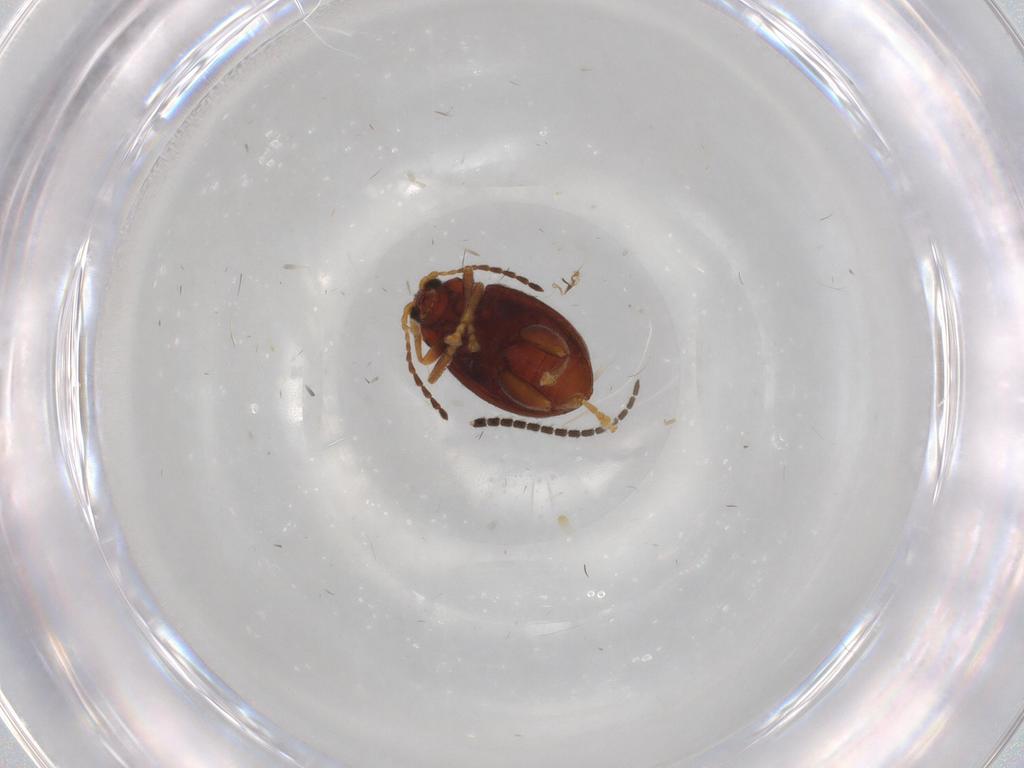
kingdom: Animalia
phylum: Arthropoda
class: Insecta
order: Coleoptera
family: Chrysomelidae
